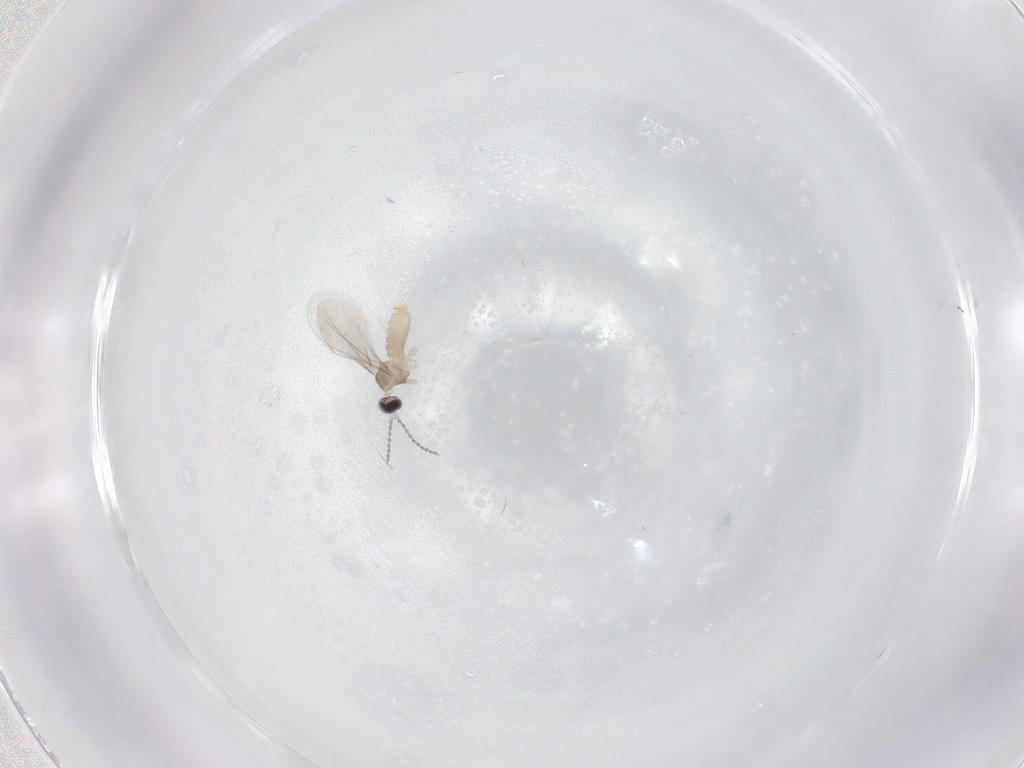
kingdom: Animalia
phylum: Arthropoda
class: Insecta
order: Diptera
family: Cecidomyiidae
